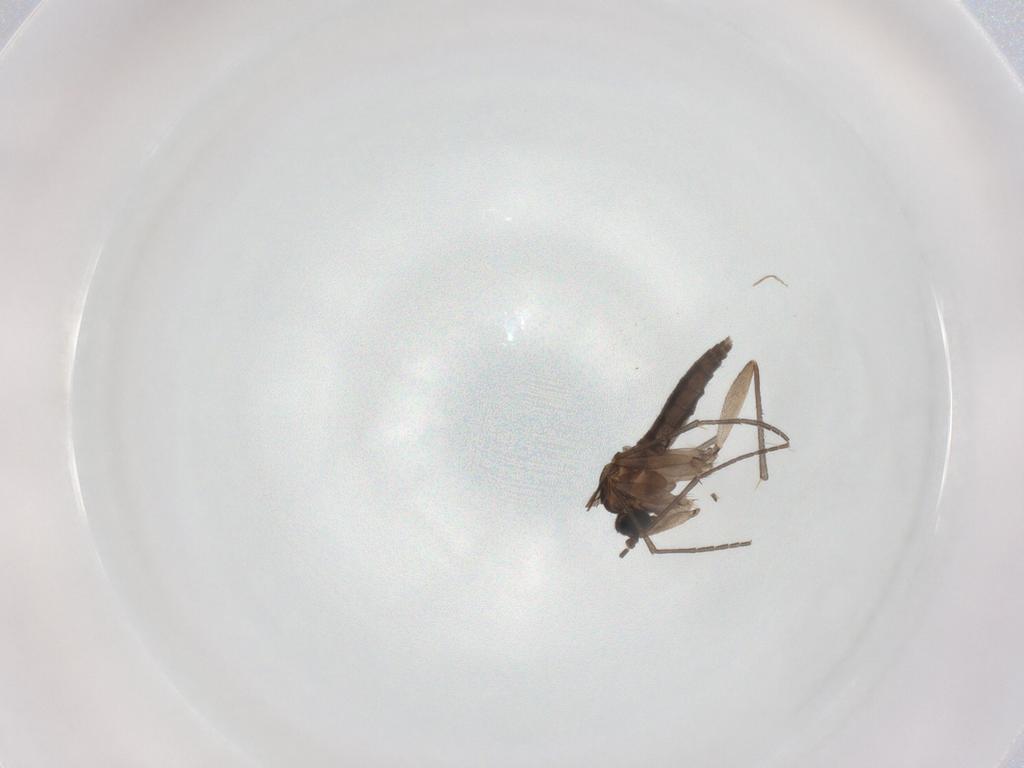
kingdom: Animalia
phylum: Arthropoda
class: Insecta
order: Diptera
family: Sciaridae
